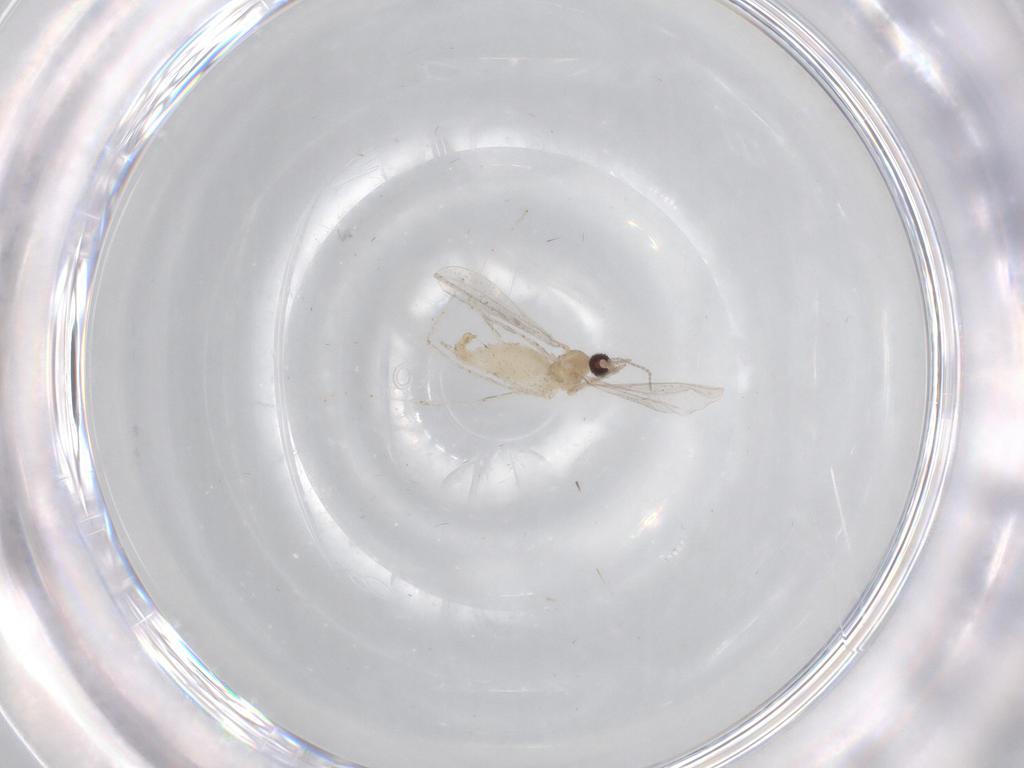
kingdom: Animalia
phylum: Arthropoda
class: Insecta
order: Diptera
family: Cecidomyiidae
